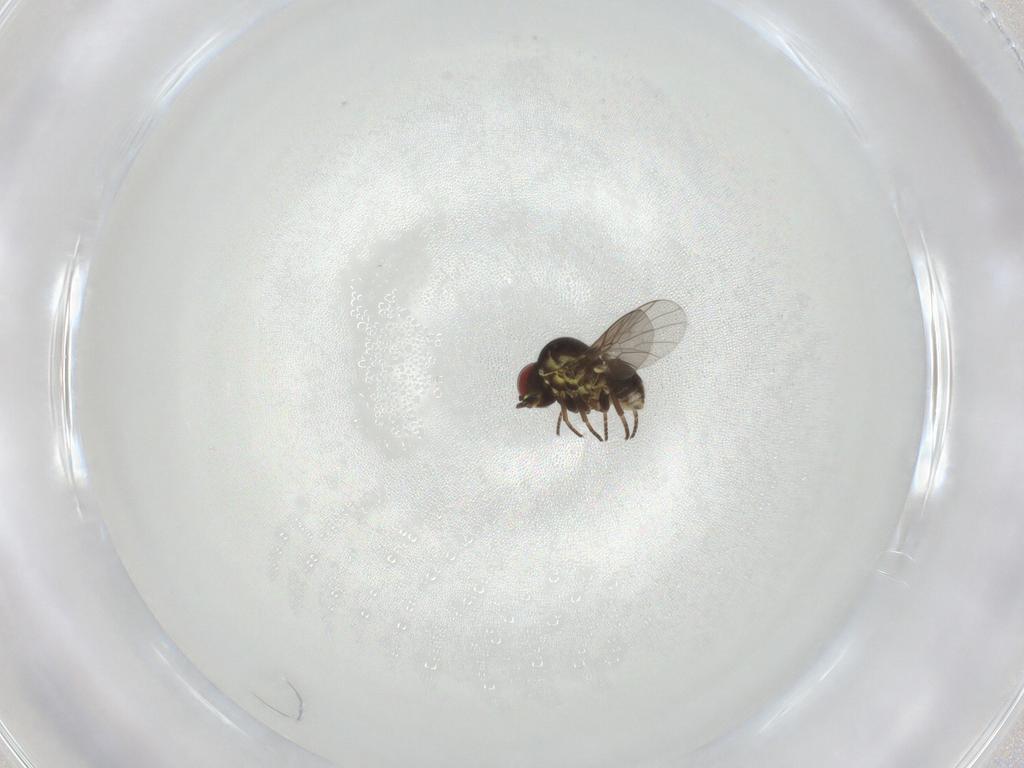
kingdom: Animalia
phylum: Arthropoda
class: Insecta
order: Diptera
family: Bombyliidae
